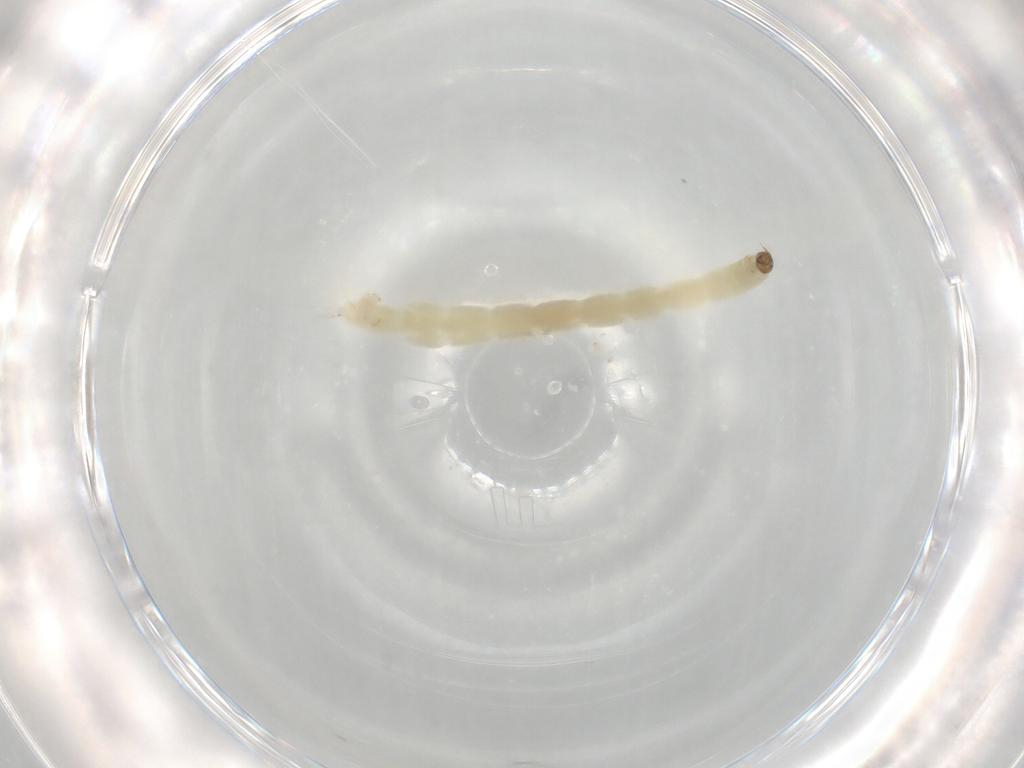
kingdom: Animalia
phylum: Arthropoda
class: Insecta
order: Diptera
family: Chironomidae
